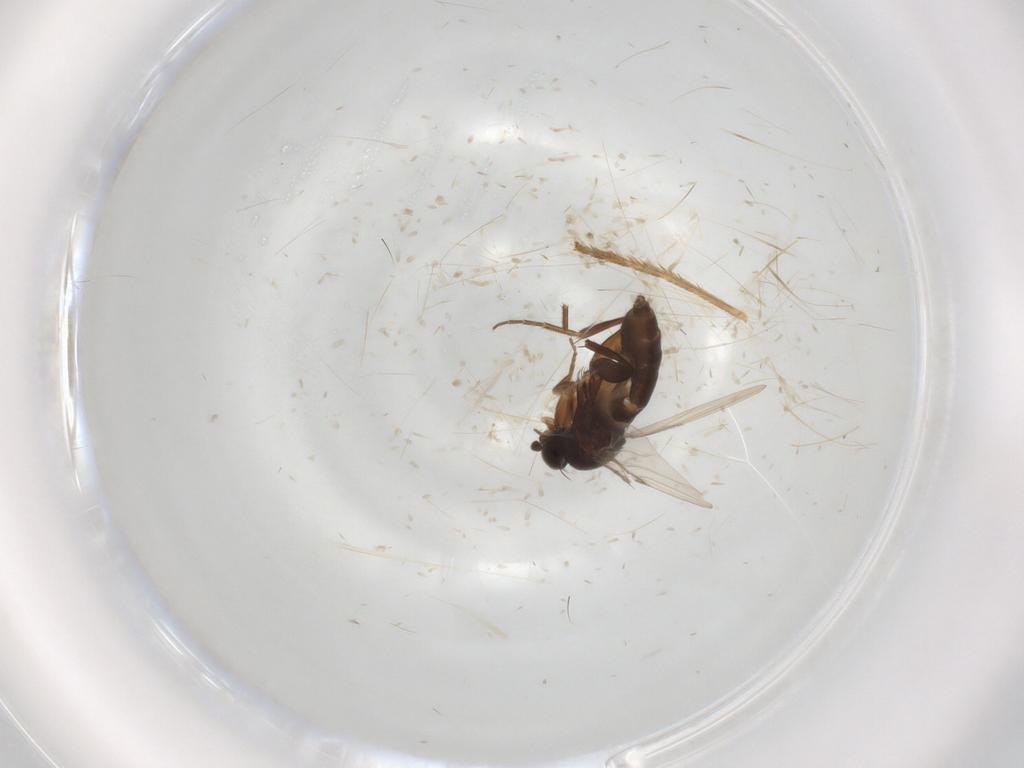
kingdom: Animalia
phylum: Arthropoda
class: Insecta
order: Diptera
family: Phoridae
